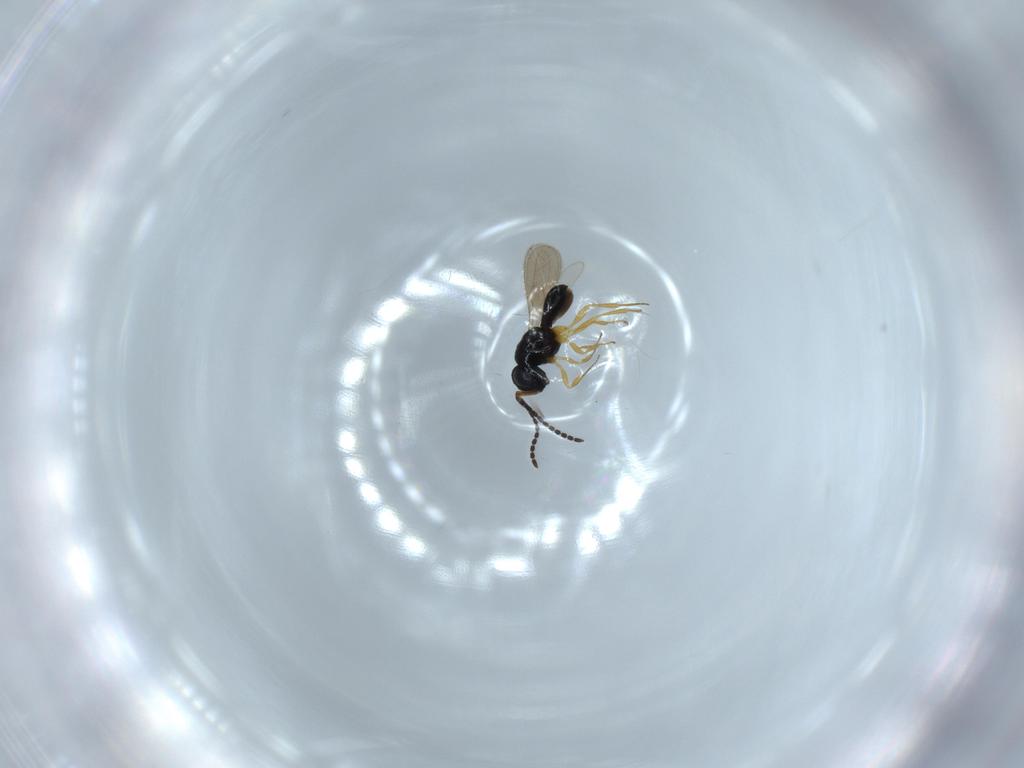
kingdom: Animalia
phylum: Arthropoda
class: Insecta
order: Hymenoptera
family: Scelionidae
